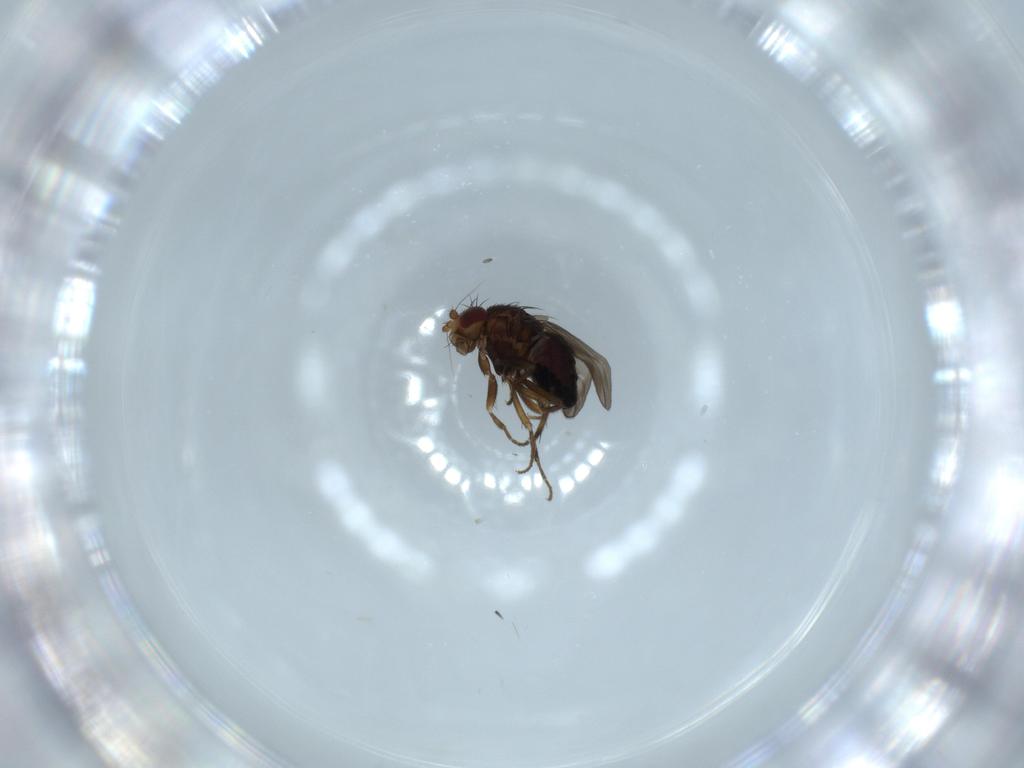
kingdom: Animalia
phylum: Arthropoda
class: Insecta
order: Diptera
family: Sphaeroceridae
